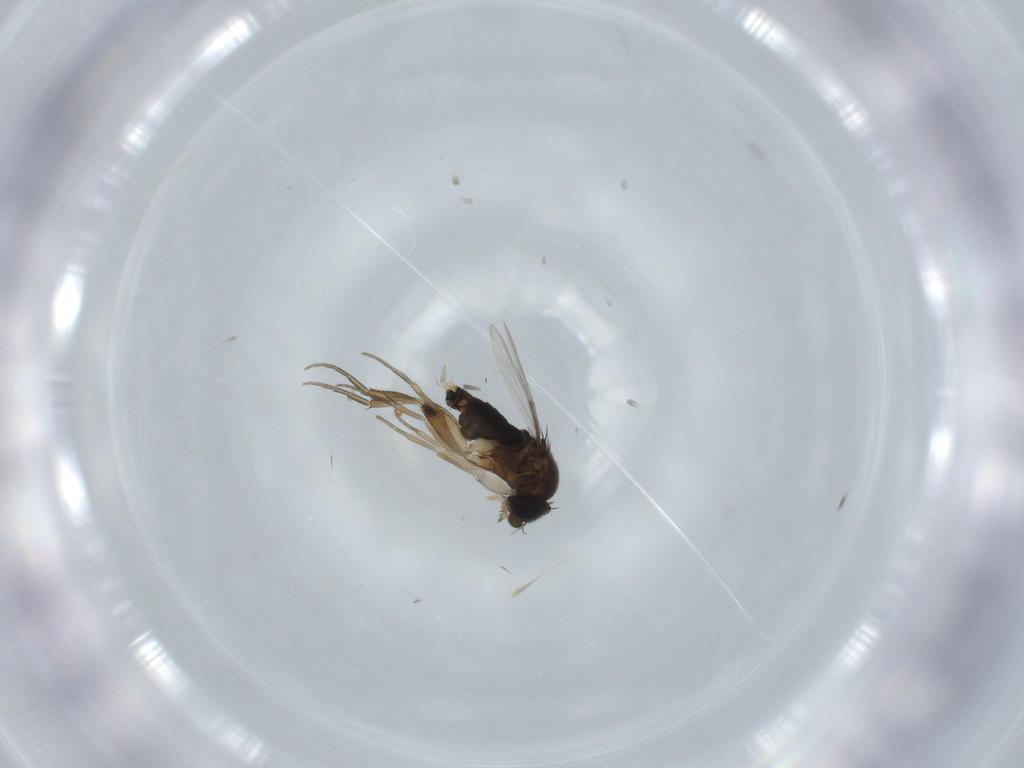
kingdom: Animalia
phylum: Arthropoda
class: Insecta
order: Diptera
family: Phoridae
